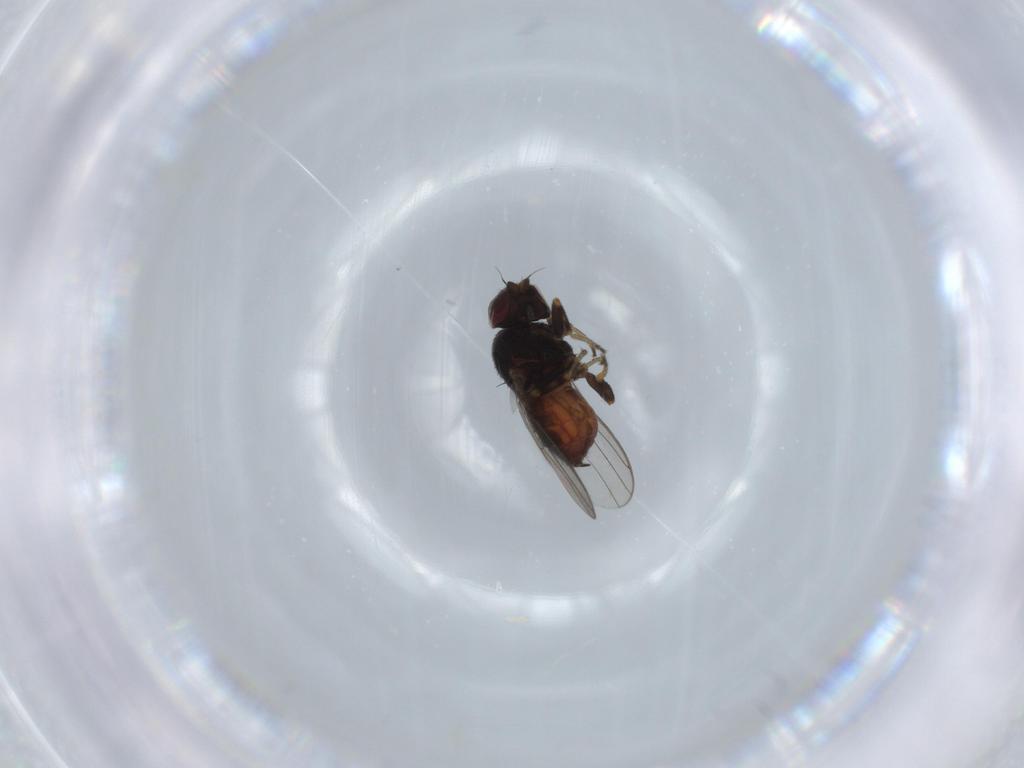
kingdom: Animalia
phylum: Arthropoda
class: Insecta
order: Diptera
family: Chloropidae
